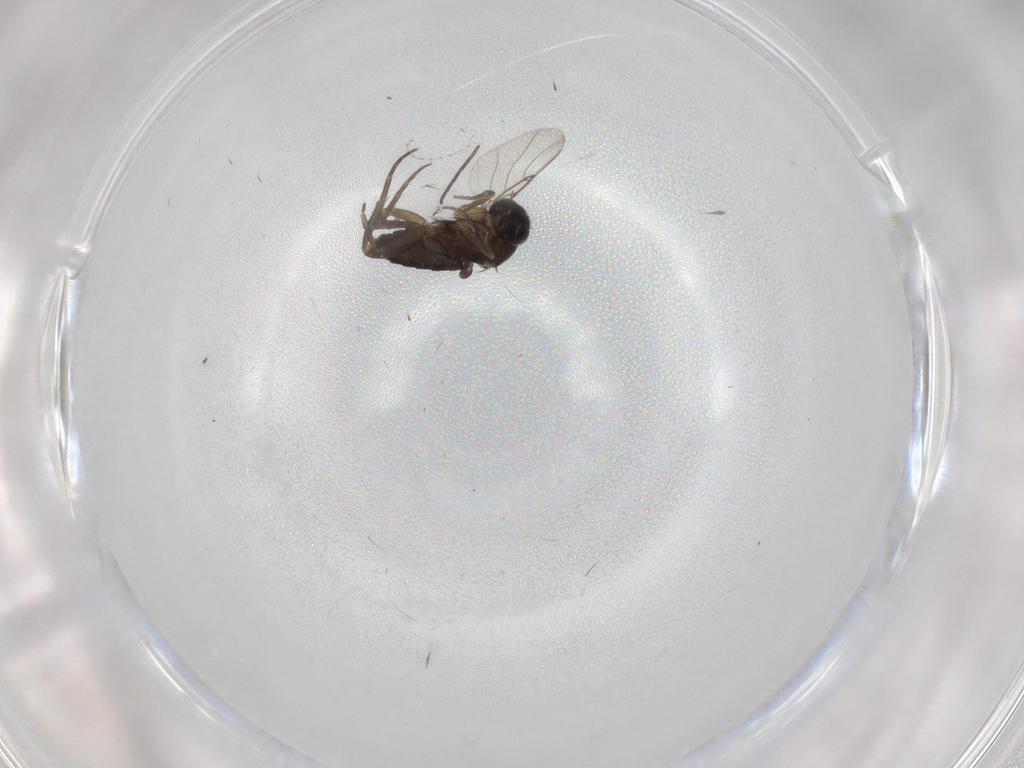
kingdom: Animalia
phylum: Arthropoda
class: Insecta
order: Diptera
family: Phoridae
